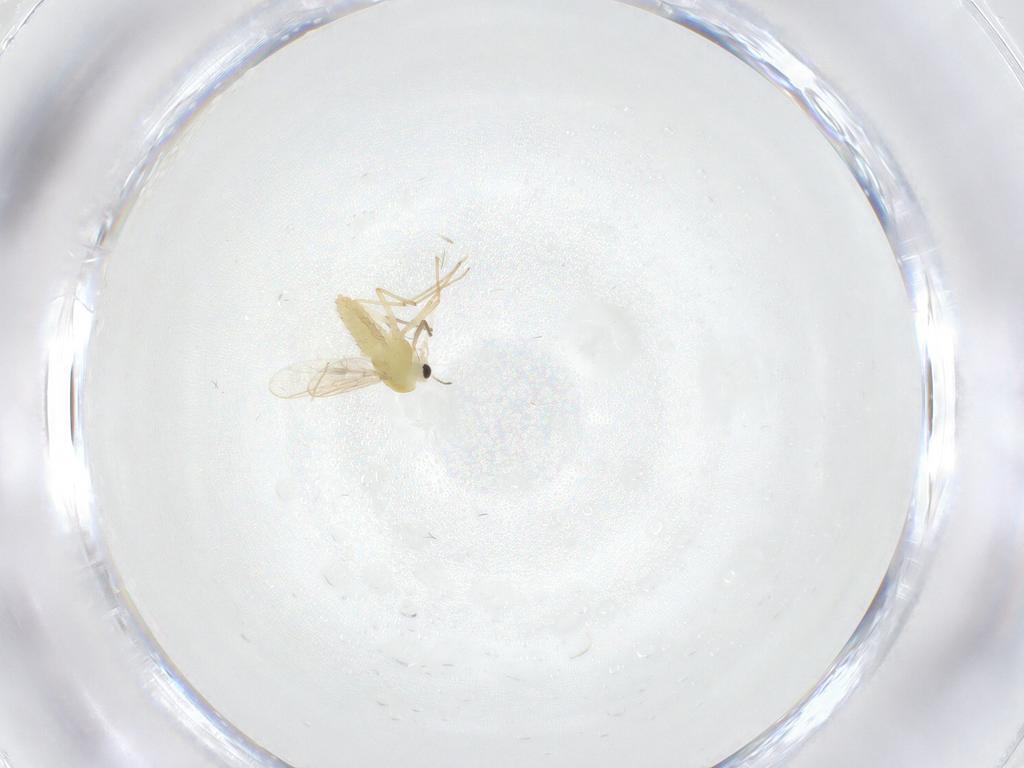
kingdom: Animalia
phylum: Arthropoda
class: Insecta
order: Diptera
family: Chironomidae
